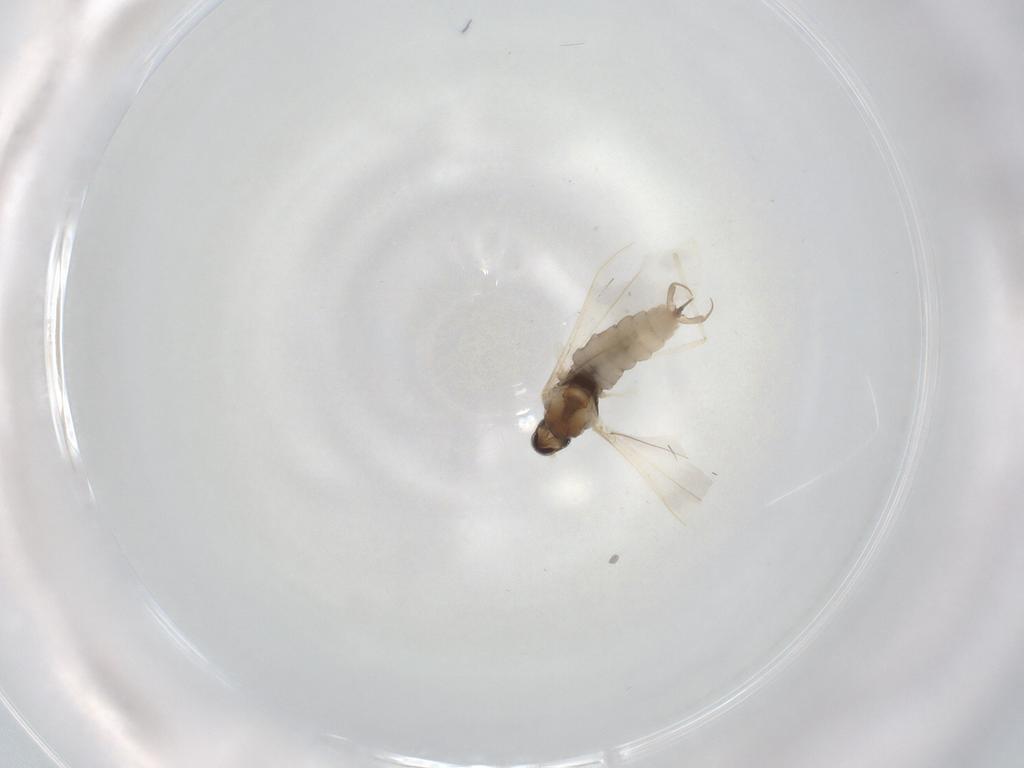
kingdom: Animalia
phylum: Arthropoda
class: Insecta
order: Diptera
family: Cecidomyiidae
